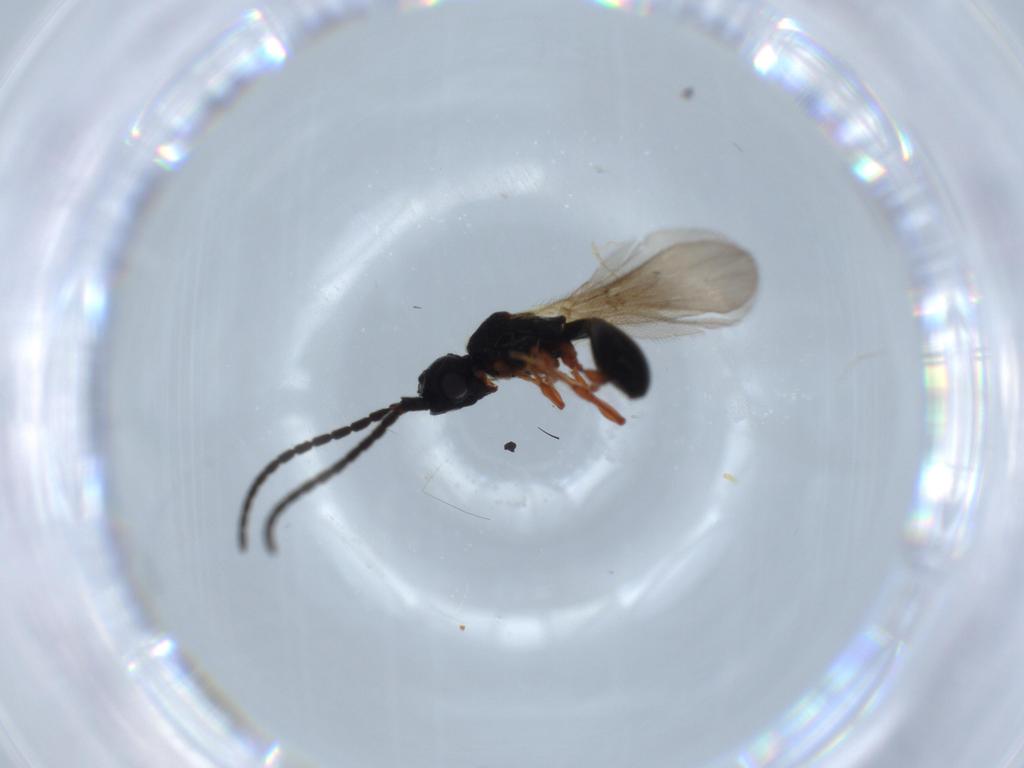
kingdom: Animalia
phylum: Arthropoda
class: Insecta
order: Hymenoptera
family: Diapriidae
